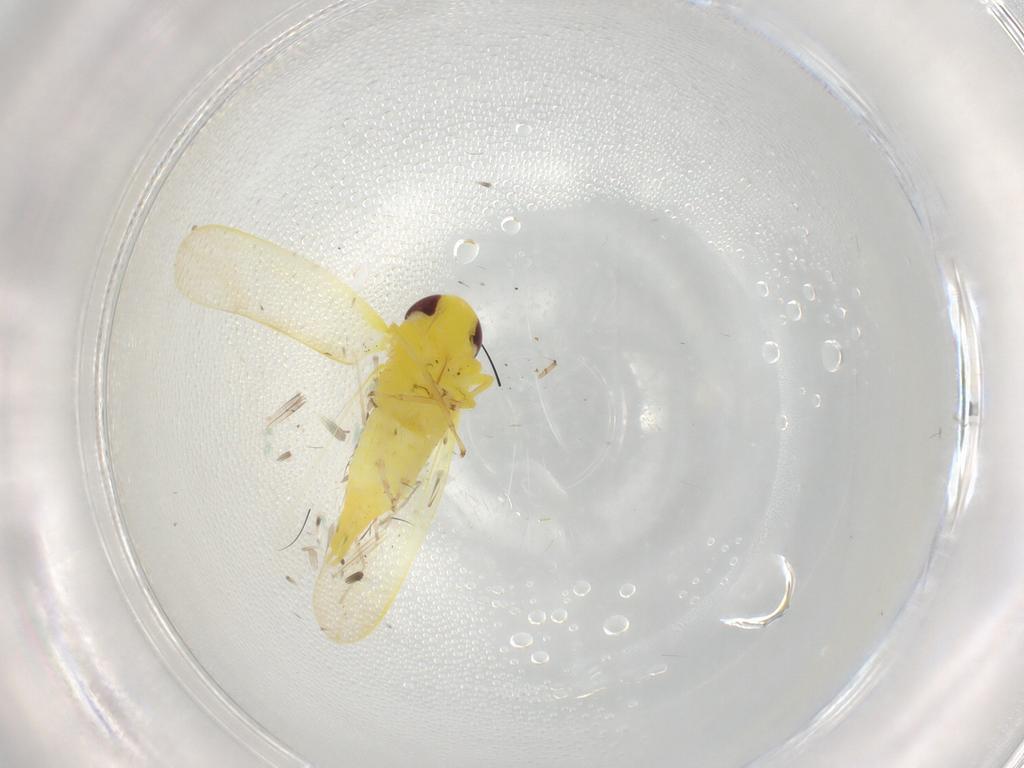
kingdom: Animalia
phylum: Arthropoda
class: Insecta
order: Hemiptera
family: Cicadellidae
